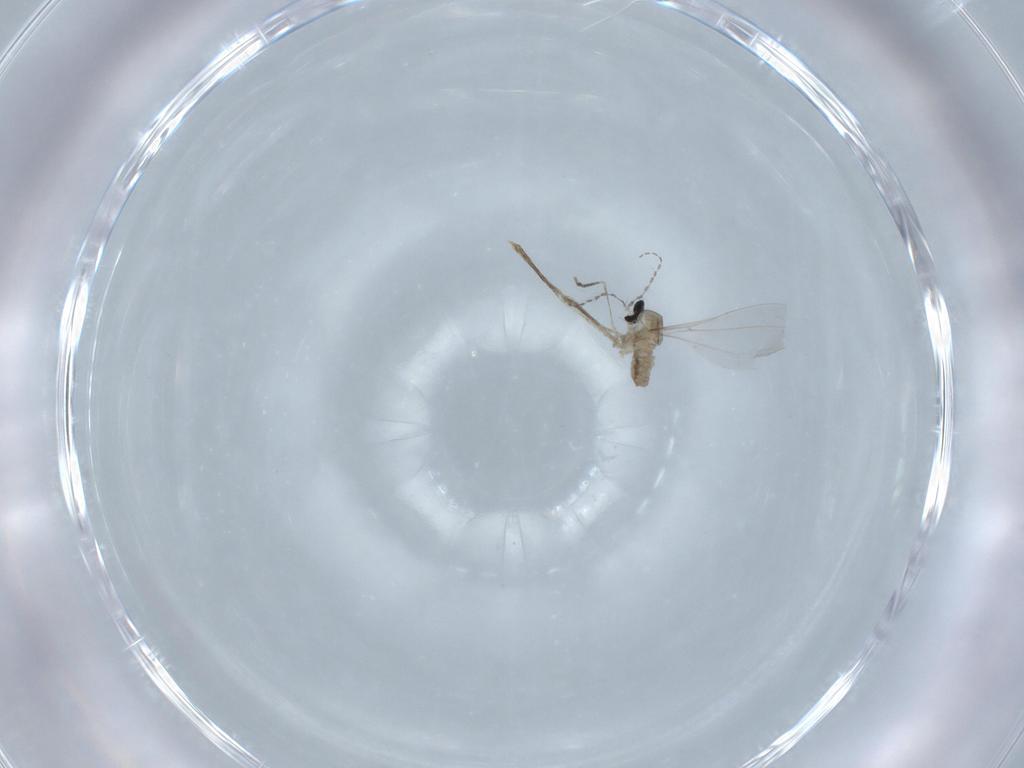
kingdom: Animalia
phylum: Arthropoda
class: Insecta
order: Diptera
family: Cecidomyiidae
